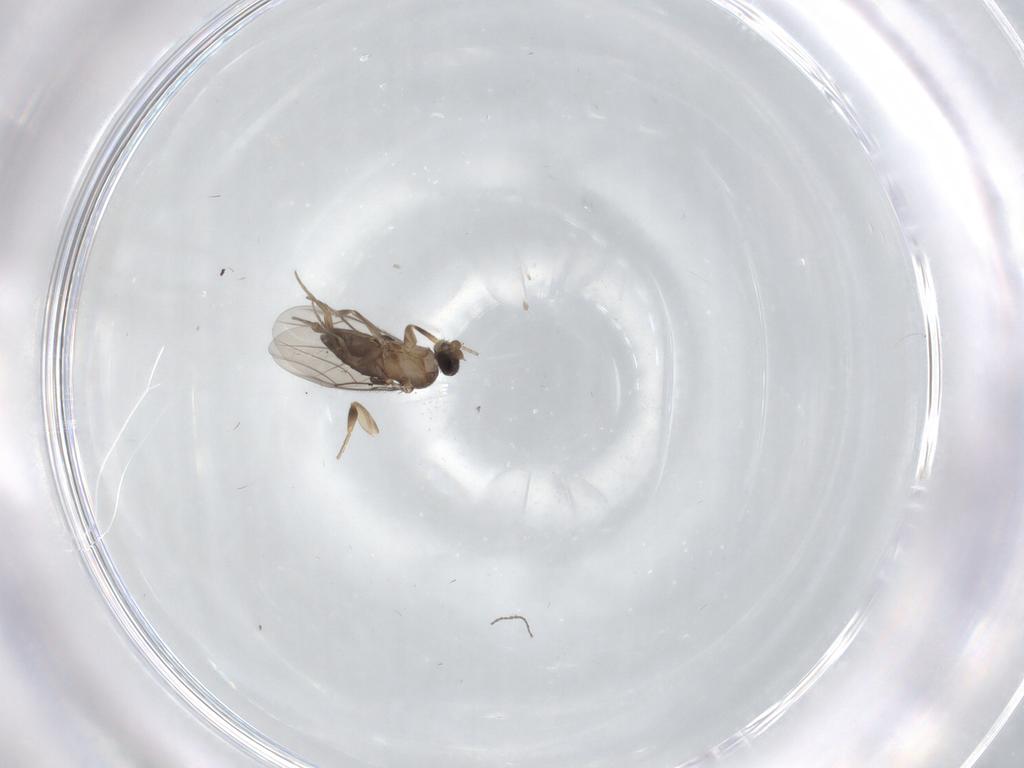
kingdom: Animalia
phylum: Arthropoda
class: Insecta
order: Diptera
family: Phoridae
